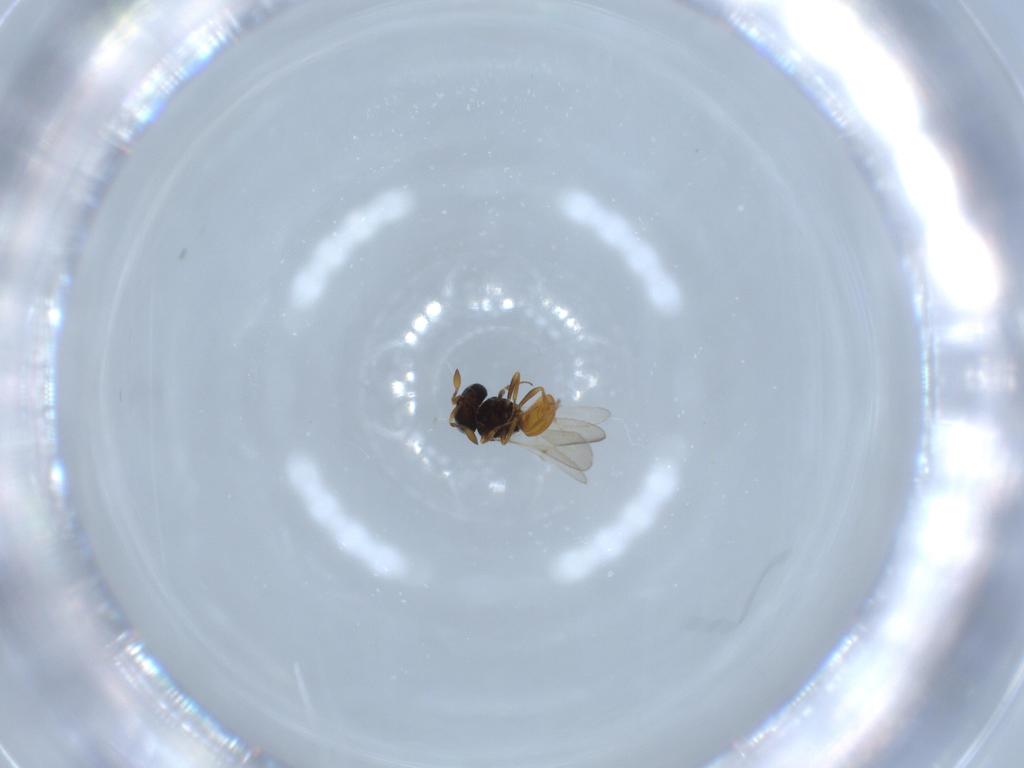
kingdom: Animalia
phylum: Arthropoda
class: Insecta
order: Hymenoptera
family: Scelionidae
